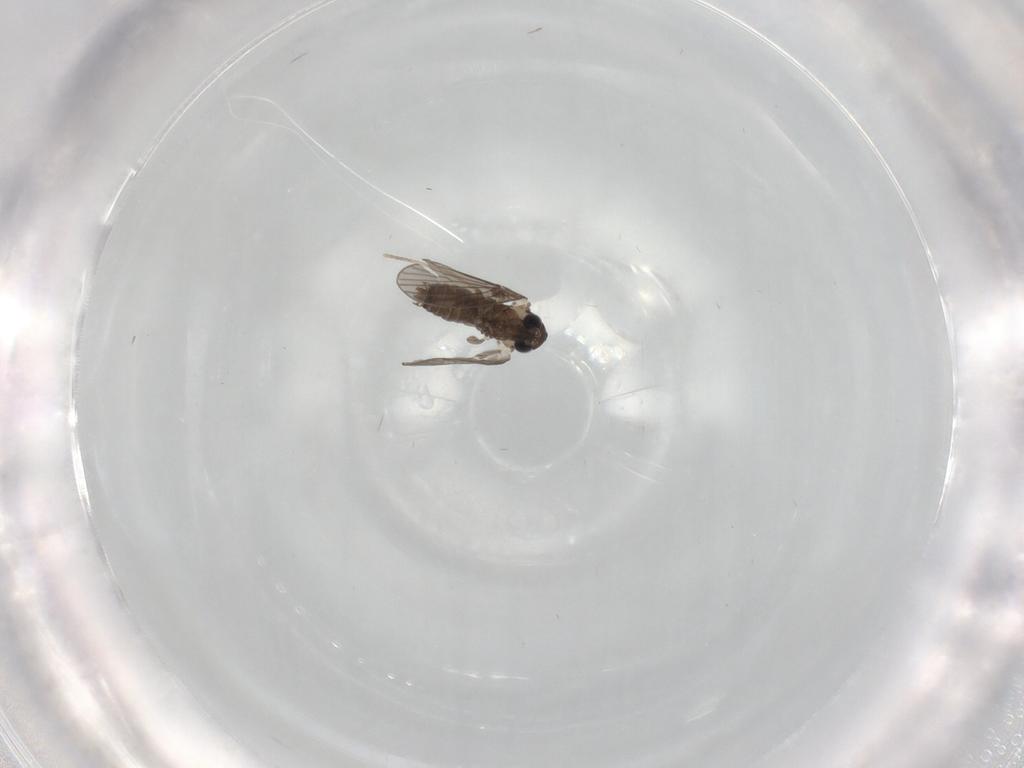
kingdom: Animalia
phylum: Arthropoda
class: Insecta
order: Diptera
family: Cecidomyiidae
